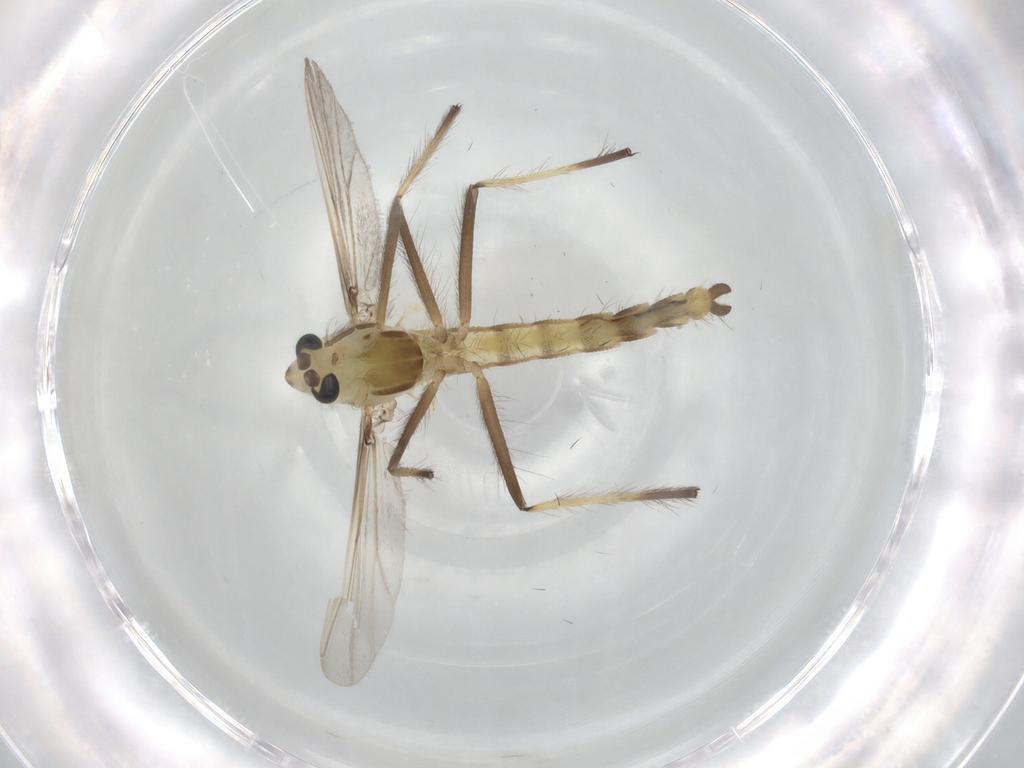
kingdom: Animalia
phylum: Arthropoda
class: Insecta
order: Diptera
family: Chironomidae
